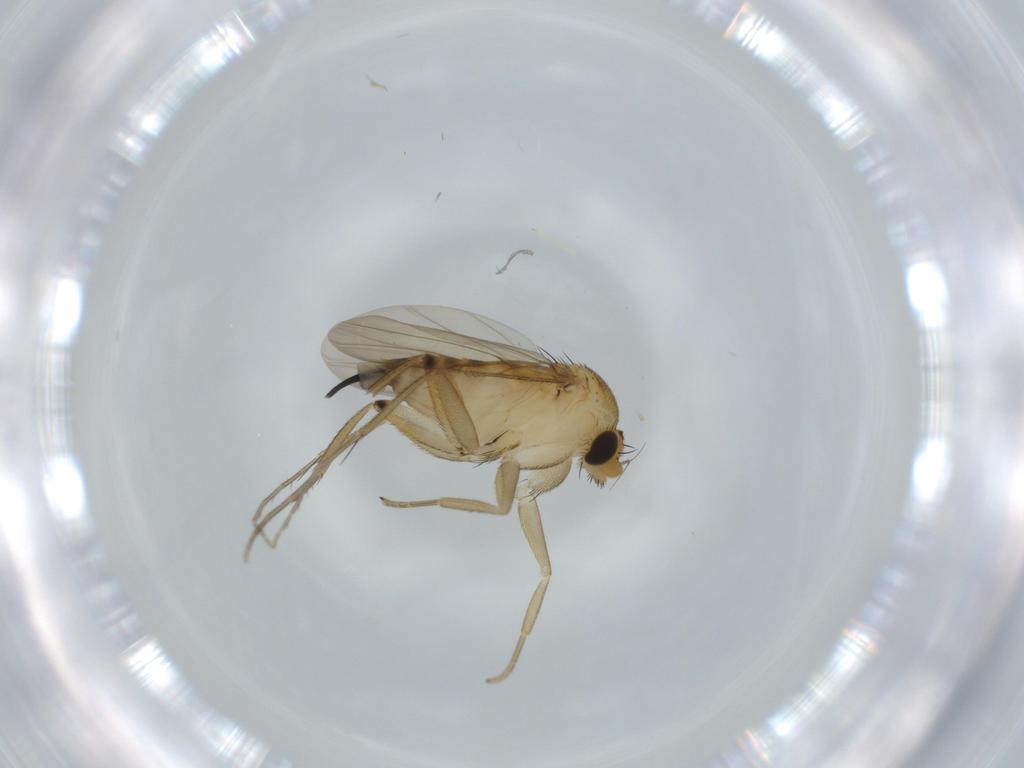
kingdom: Animalia
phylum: Arthropoda
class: Insecta
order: Diptera
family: Phoridae
